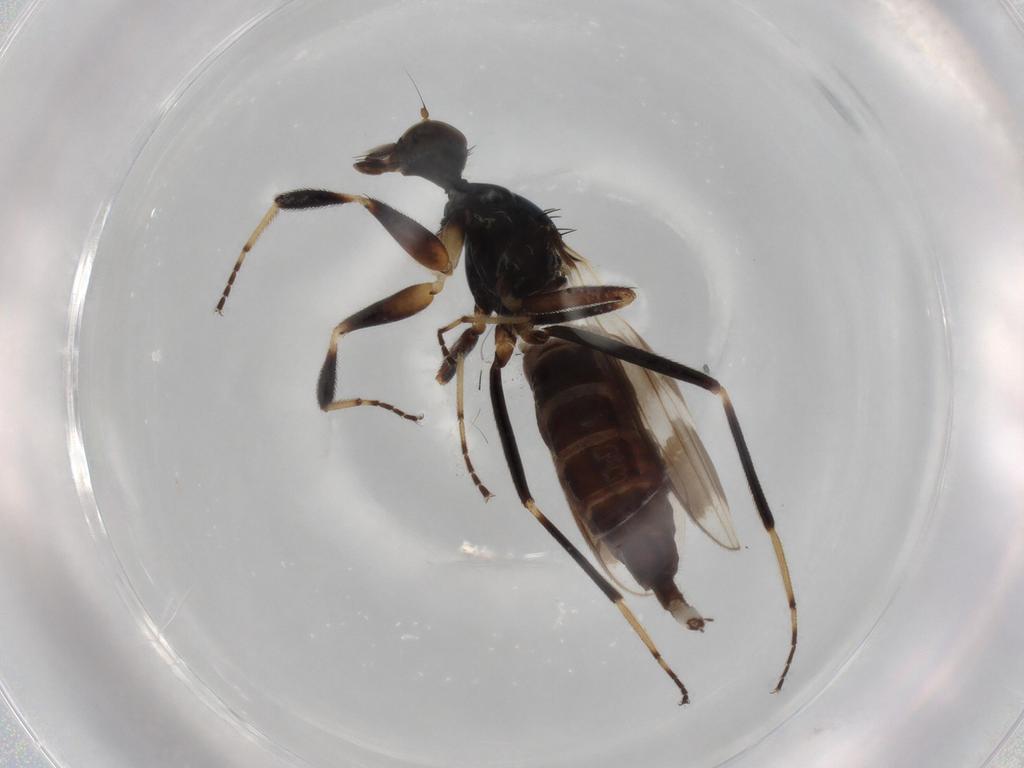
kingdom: Animalia
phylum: Arthropoda
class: Insecta
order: Diptera
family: Hybotidae
